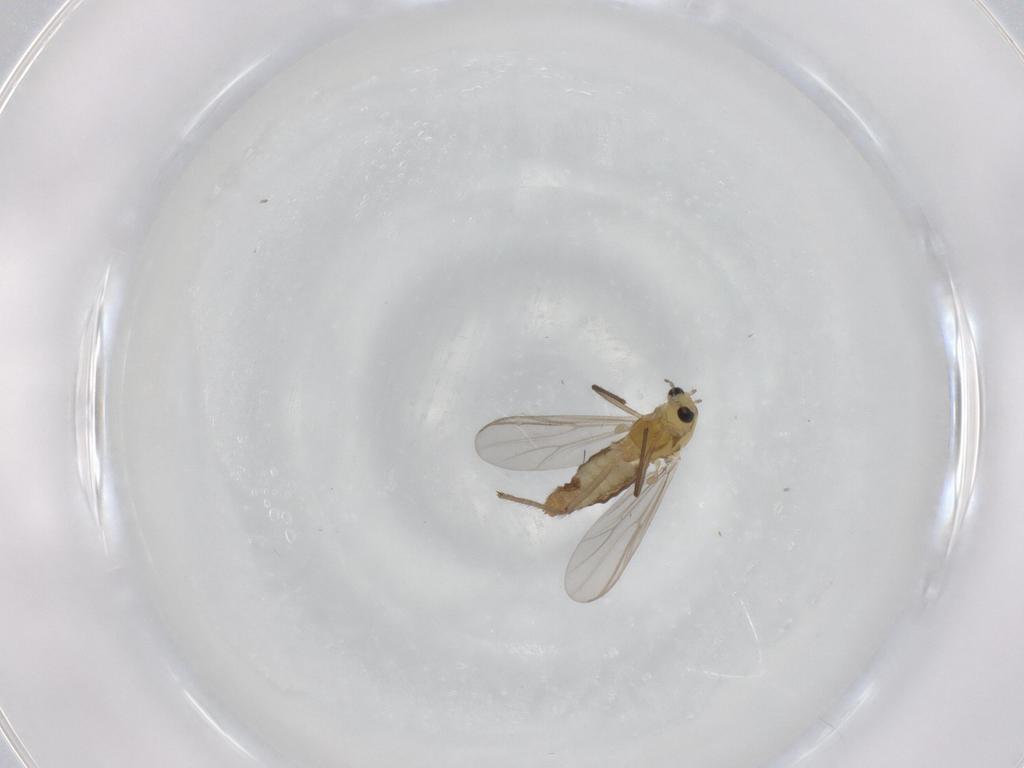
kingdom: Animalia
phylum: Arthropoda
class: Insecta
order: Diptera
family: Chironomidae
